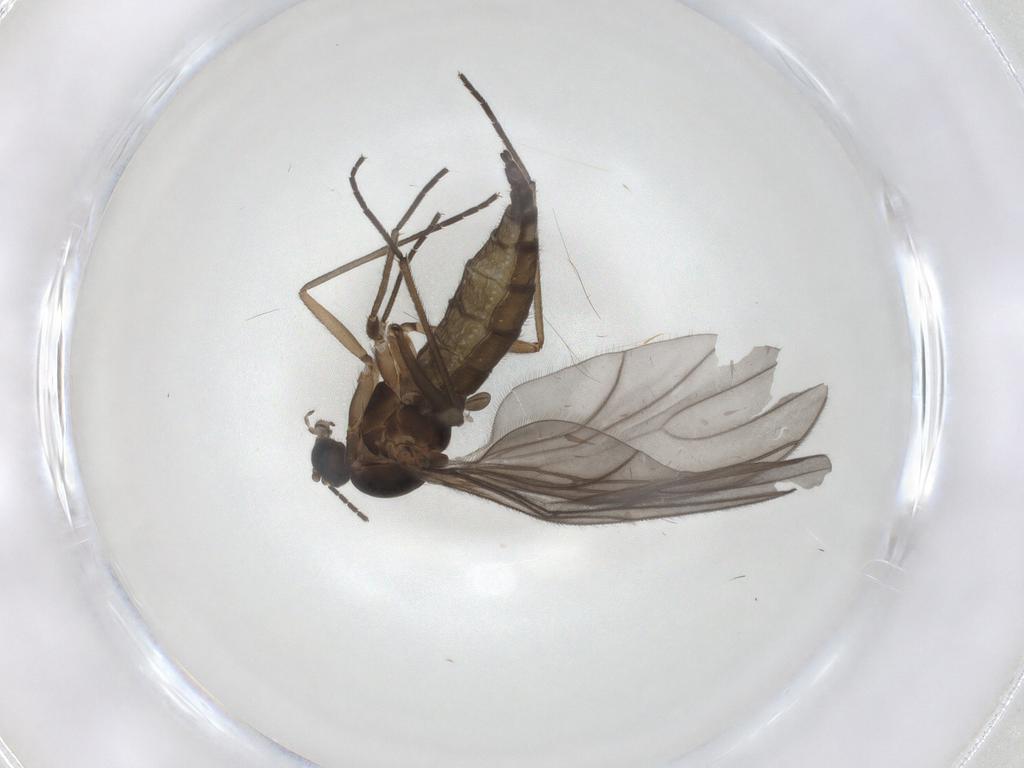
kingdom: Animalia
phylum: Arthropoda
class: Insecta
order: Diptera
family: Sciaridae
